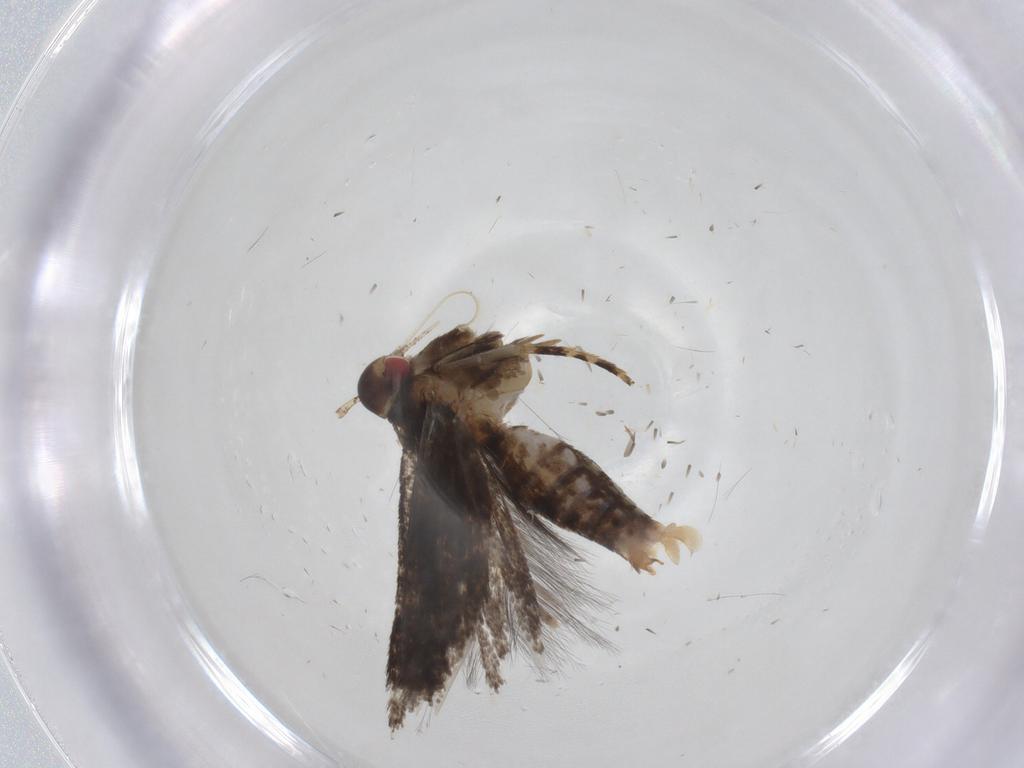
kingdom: Animalia
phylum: Arthropoda
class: Insecta
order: Lepidoptera
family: Cosmopterigidae
